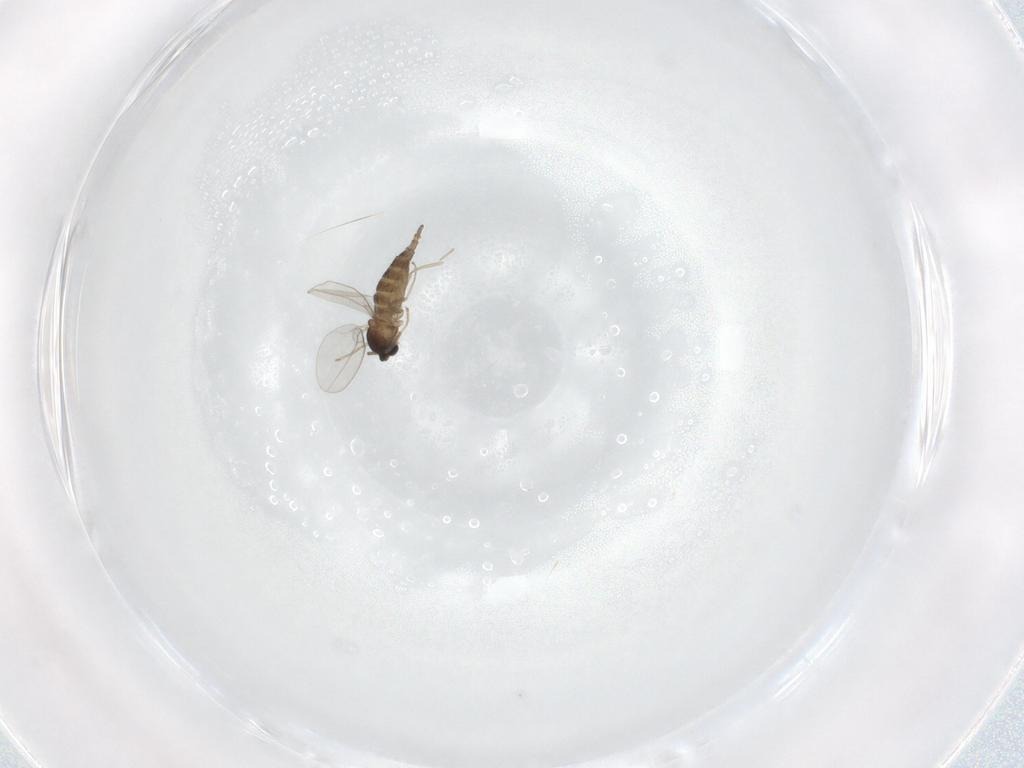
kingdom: Animalia
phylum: Arthropoda
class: Insecta
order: Diptera
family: Cecidomyiidae
